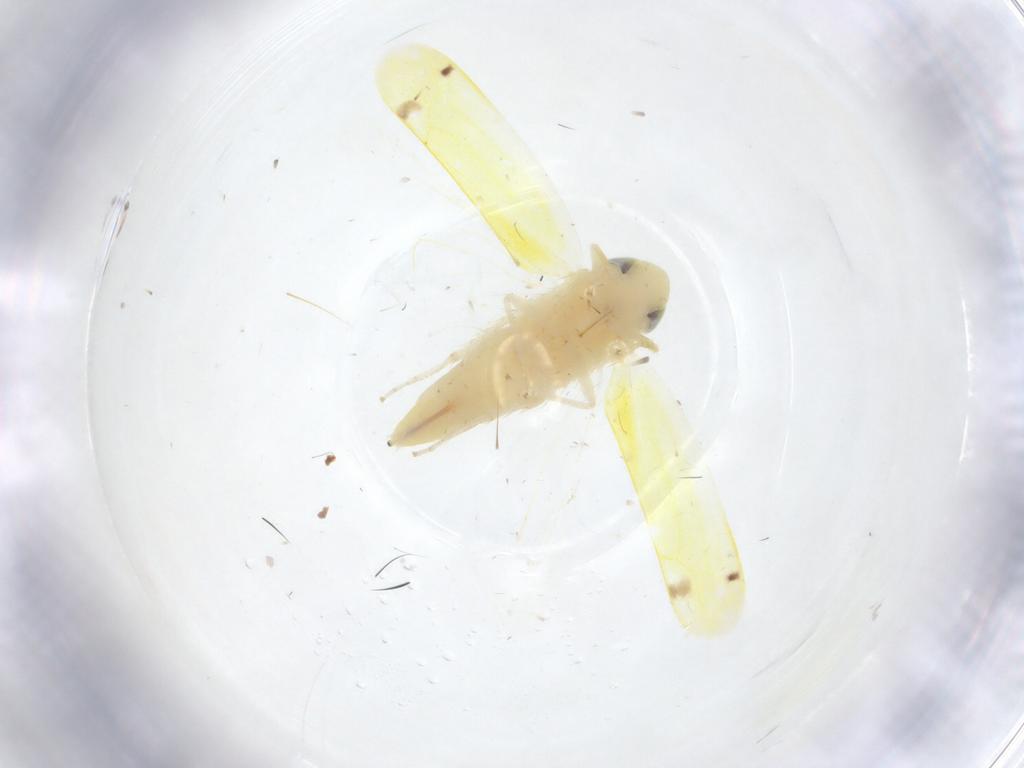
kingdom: Animalia
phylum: Arthropoda
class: Insecta
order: Hemiptera
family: Cicadellidae
